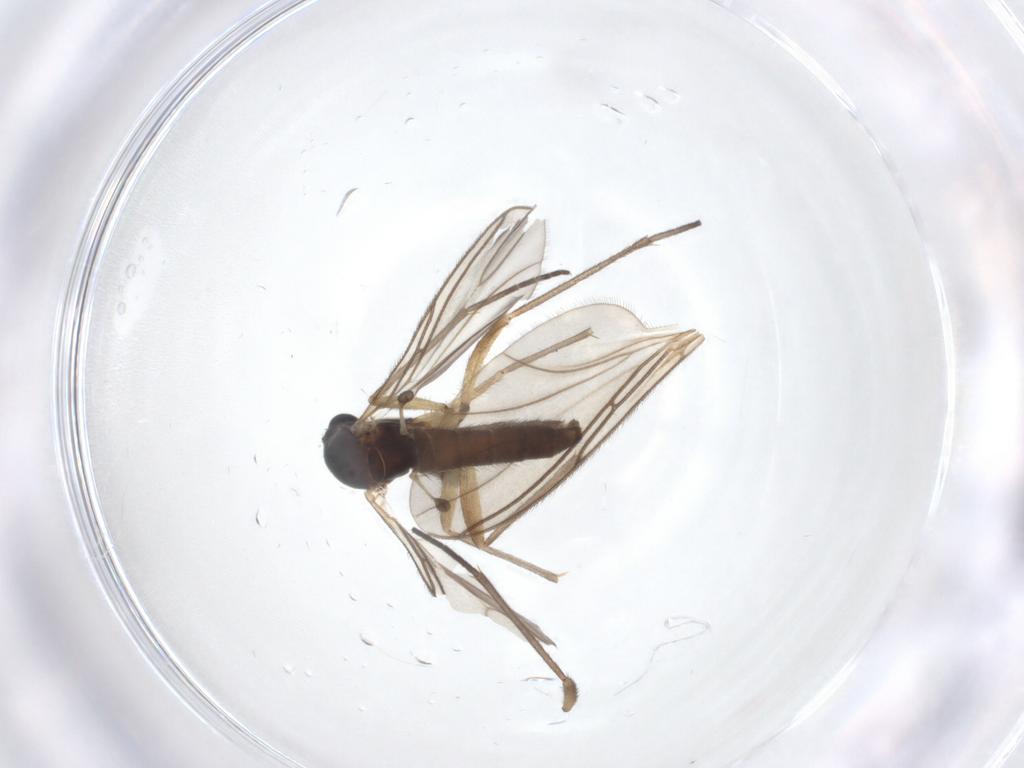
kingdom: Animalia
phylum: Arthropoda
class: Insecta
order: Diptera
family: Sciaridae
